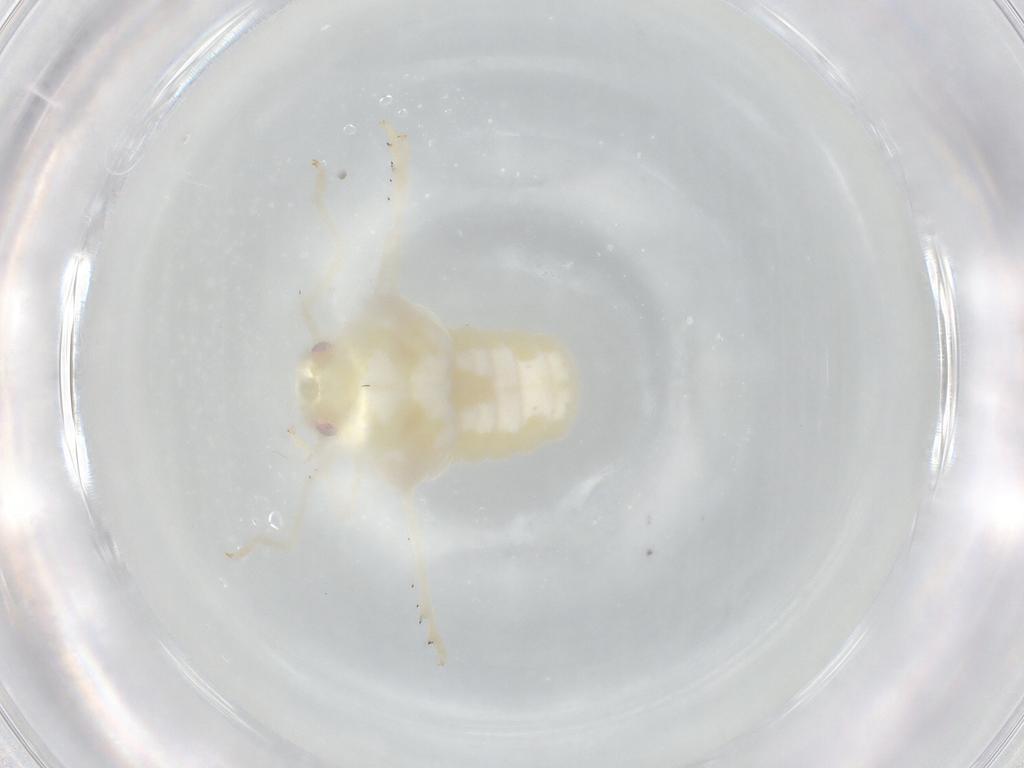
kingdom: Animalia
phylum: Arthropoda
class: Insecta
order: Hemiptera
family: Flatidae
